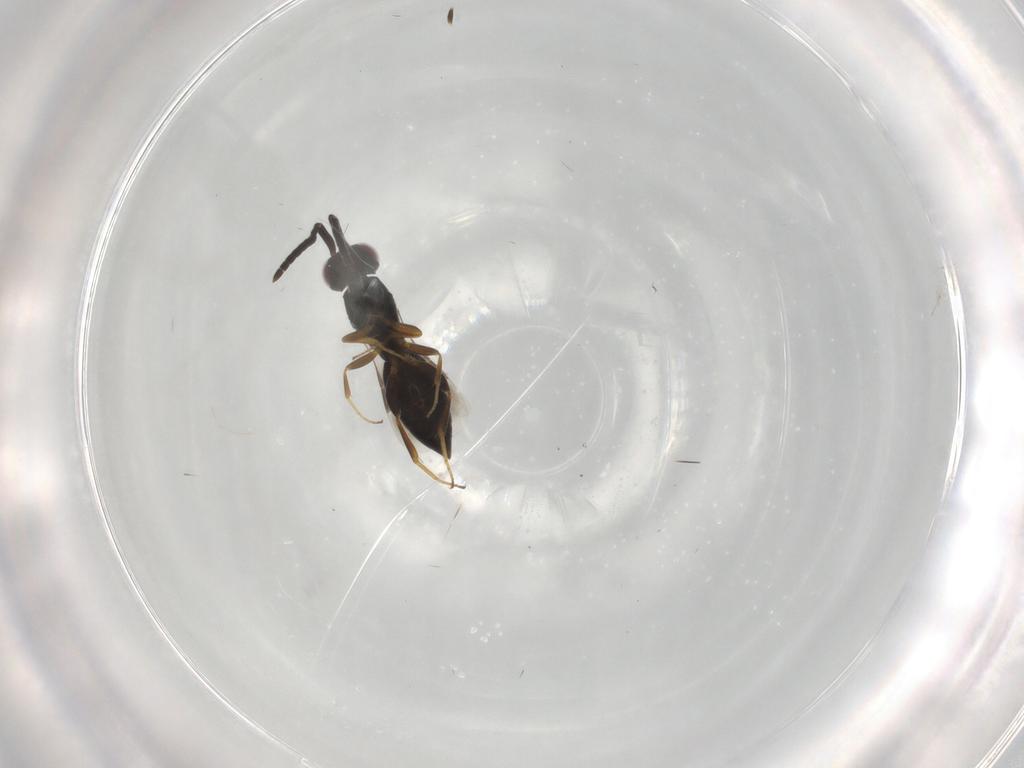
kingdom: Animalia
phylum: Arthropoda
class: Insecta
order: Hymenoptera
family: Megaspilidae
